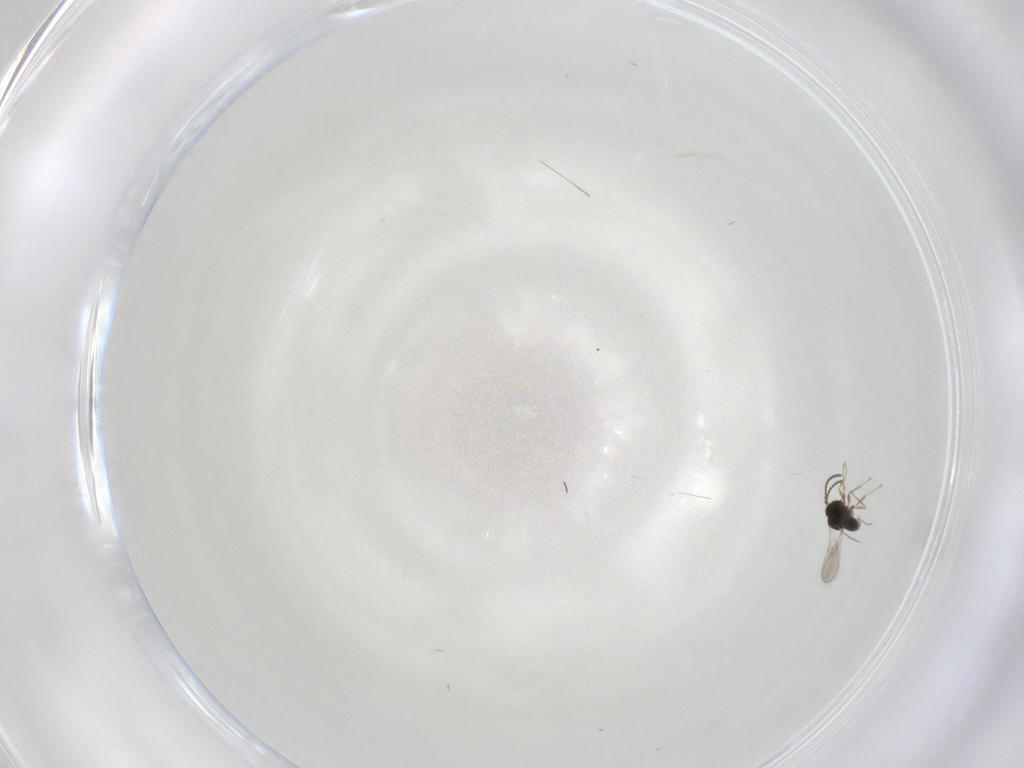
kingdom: Animalia
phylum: Arthropoda
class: Insecta
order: Hymenoptera
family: Scelionidae
